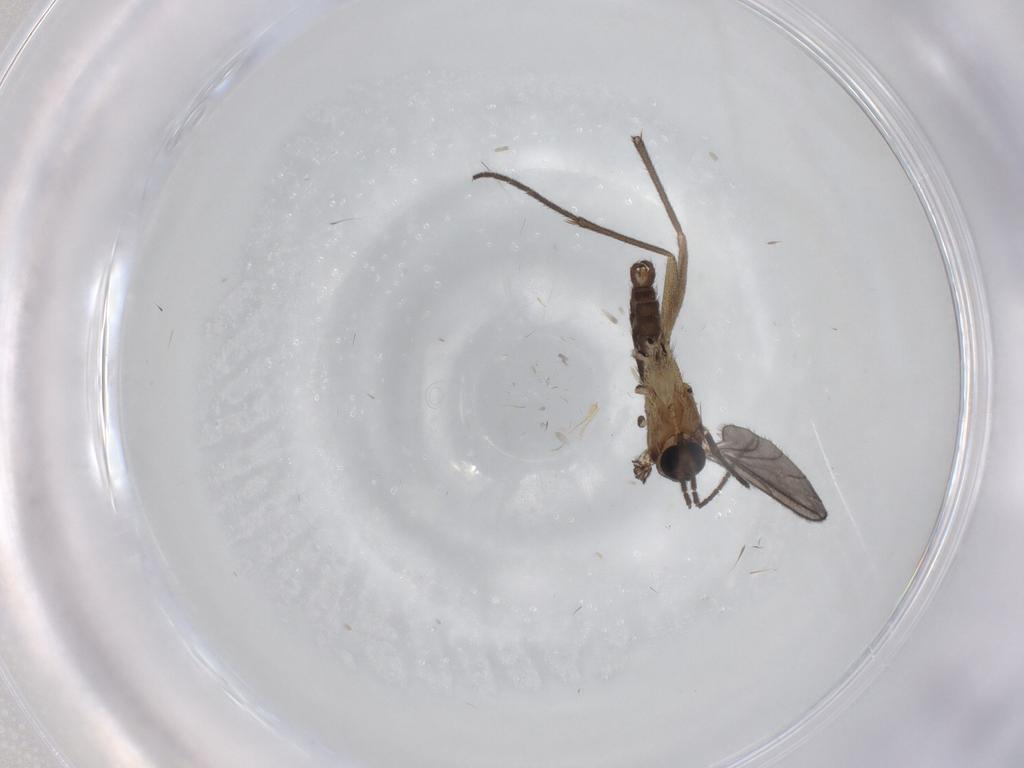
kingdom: Animalia
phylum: Arthropoda
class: Insecta
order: Diptera
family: Sciaridae
